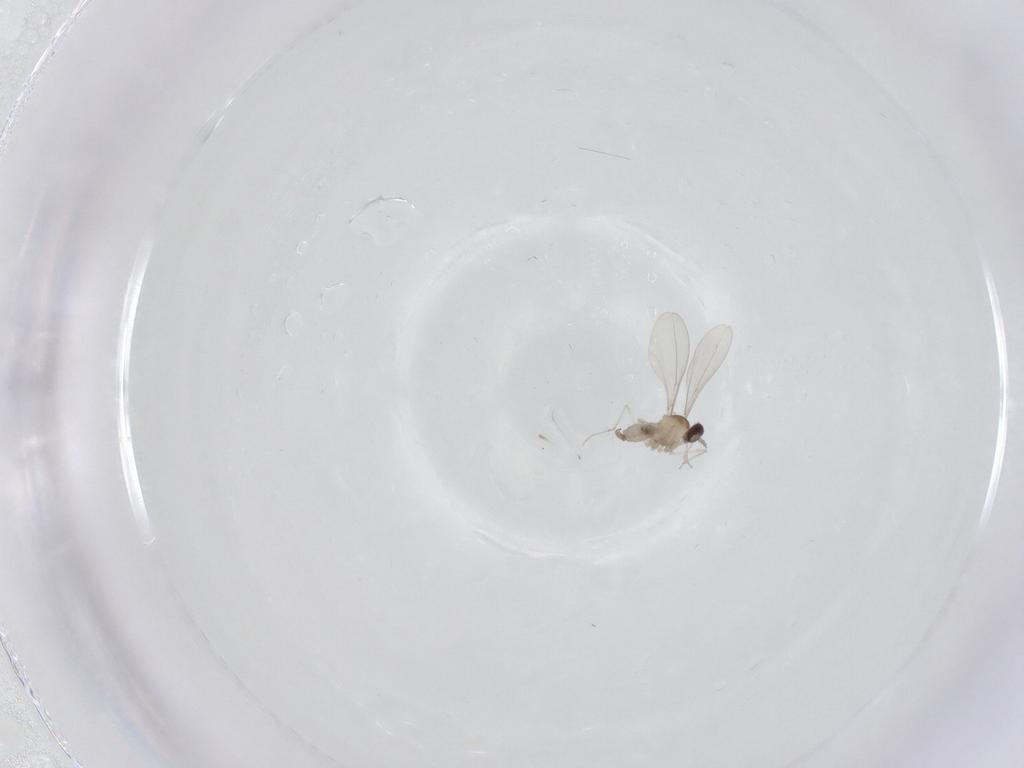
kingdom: Animalia
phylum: Arthropoda
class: Insecta
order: Diptera
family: Cecidomyiidae
